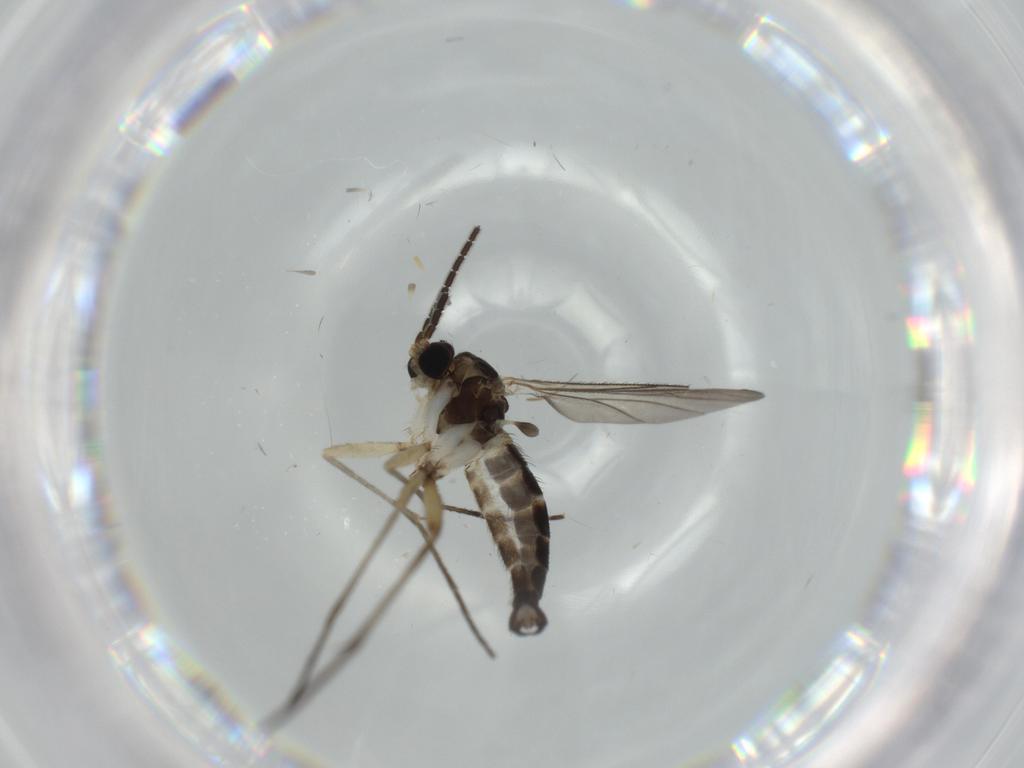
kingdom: Animalia
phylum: Arthropoda
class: Insecta
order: Diptera
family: Sciaridae
